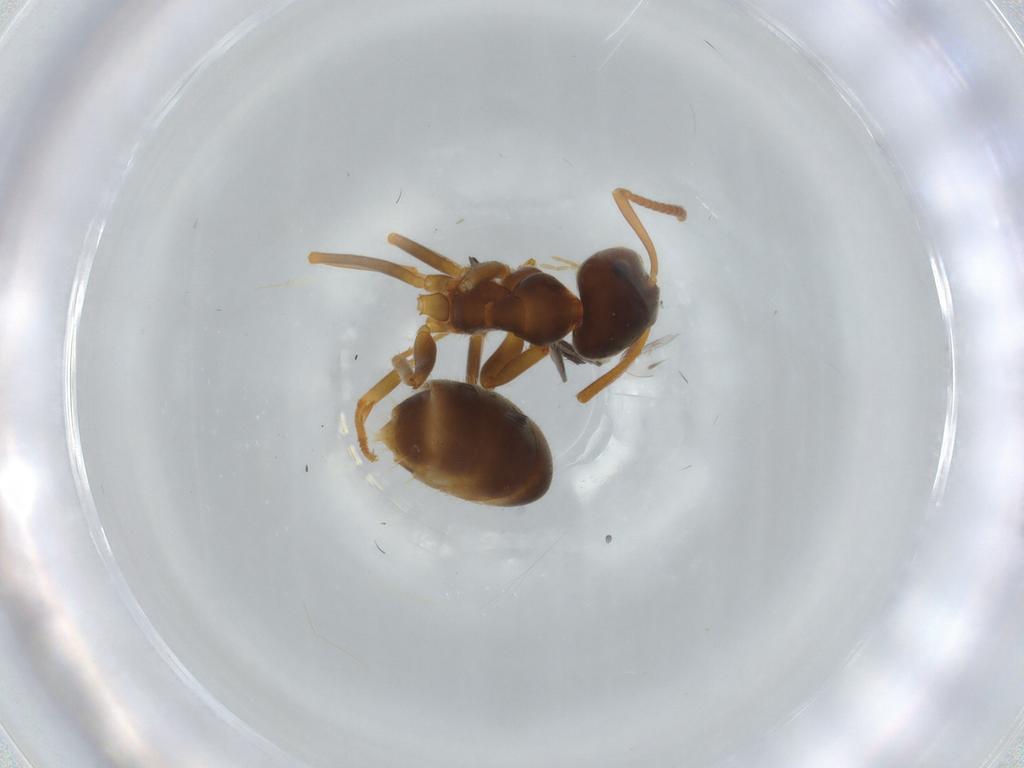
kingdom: Animalia
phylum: Arthropoda
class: Insecta
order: Hymenoptera
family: Formicidae
